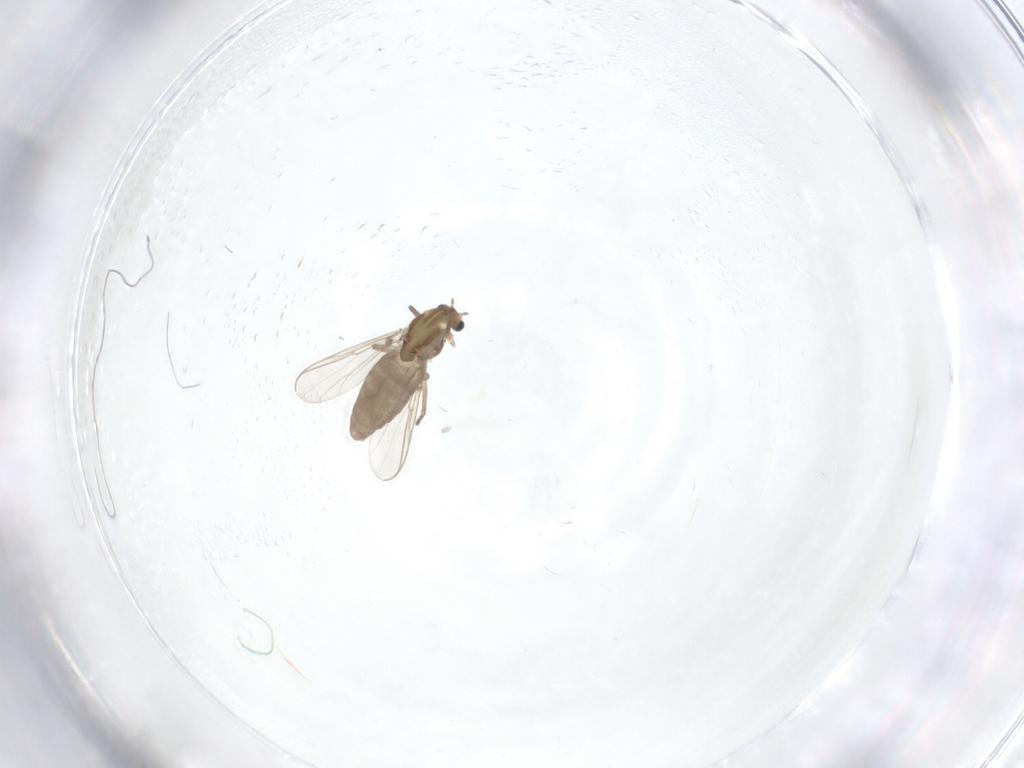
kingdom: Animalia
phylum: Arthropoda
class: Insecta
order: Diptera
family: Chironomidae
